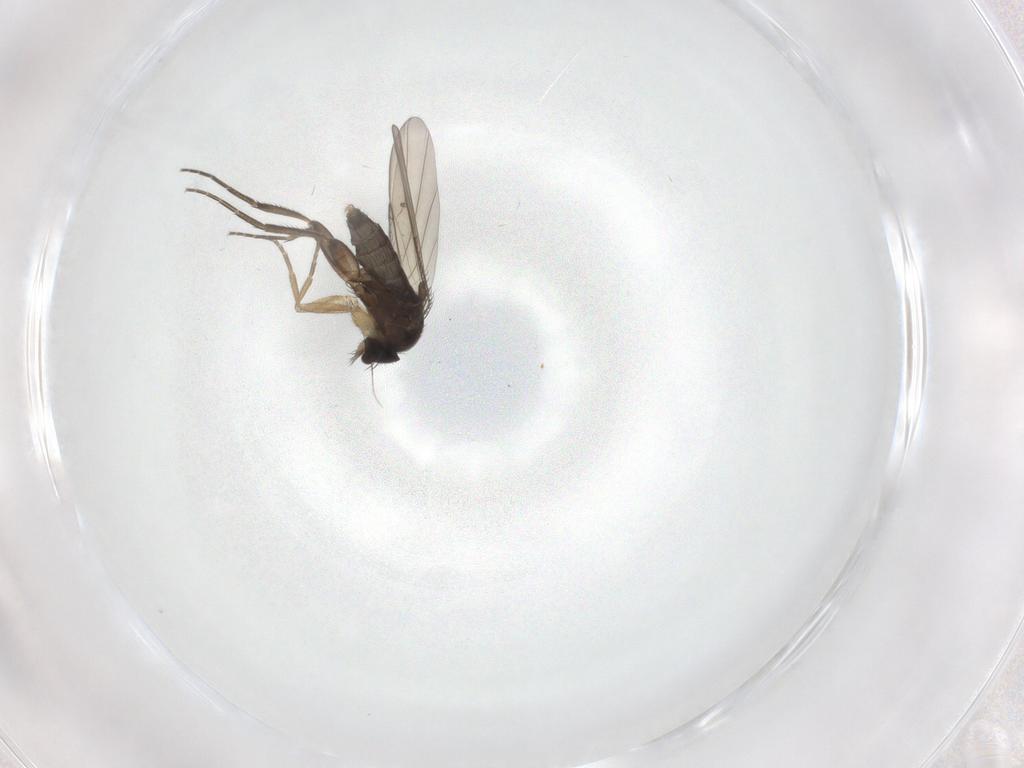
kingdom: Animalia
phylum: Arthropoda
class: Insecta
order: Diptera
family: Phoridae
